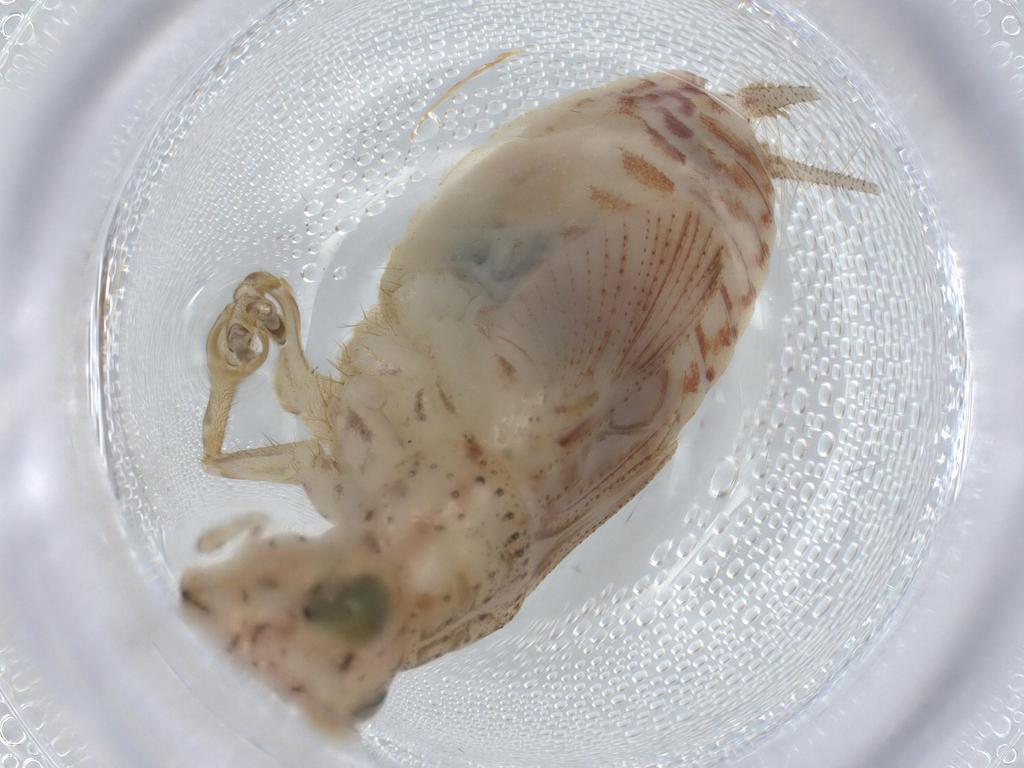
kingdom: Animalia
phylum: Arthropoda
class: Insecta
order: Orthoptera
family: Trigonidiidae
